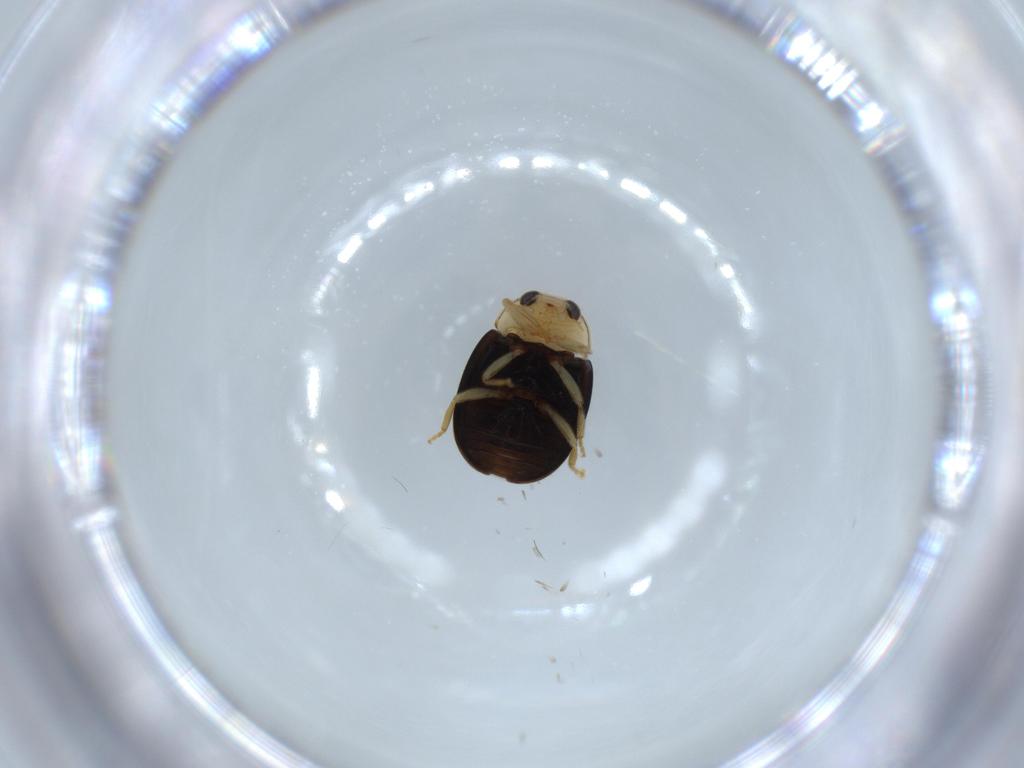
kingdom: Animalia
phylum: Arthropoda
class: Insecta
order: Coleoptera
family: Coccinellidae
